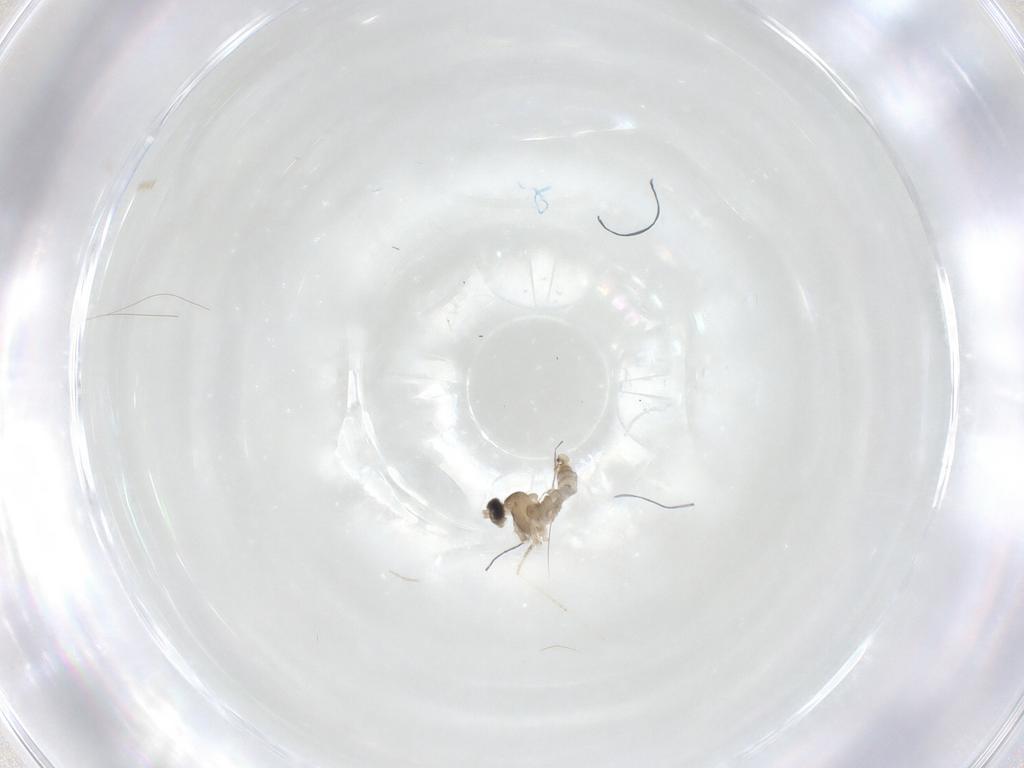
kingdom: Animalia
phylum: Arthropoda
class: Insecta
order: Diptera
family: Cecidomyiidae
